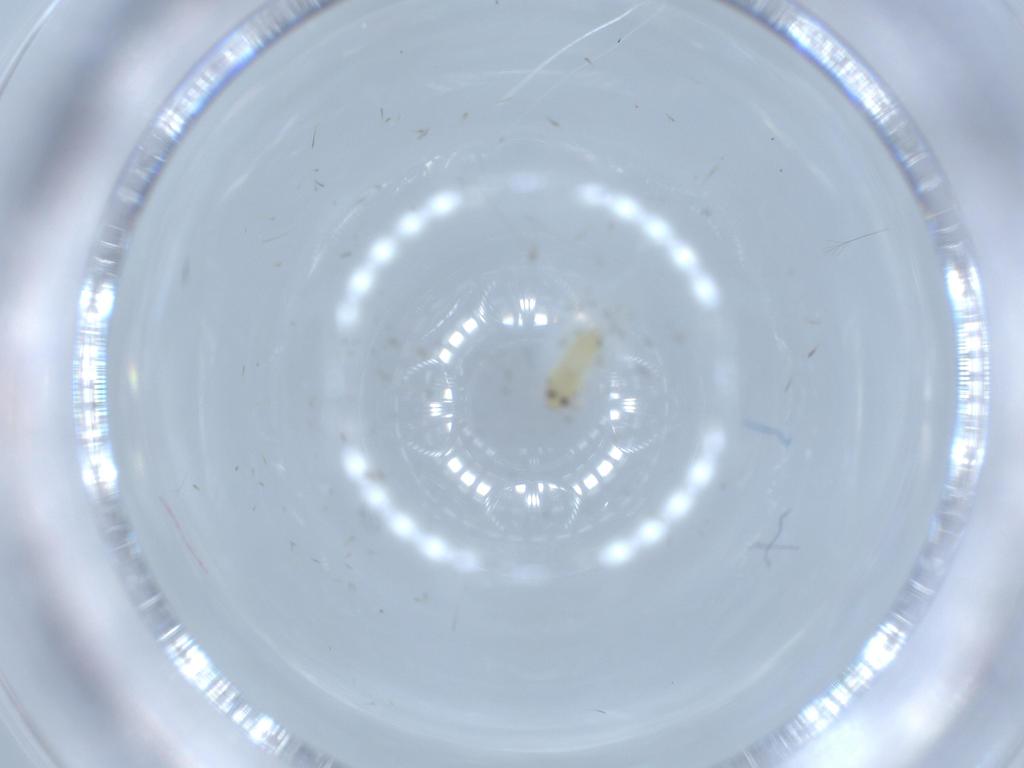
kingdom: Animalia
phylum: Arthropoda
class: Insecta
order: Hemiptera
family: Aleyrodidae
